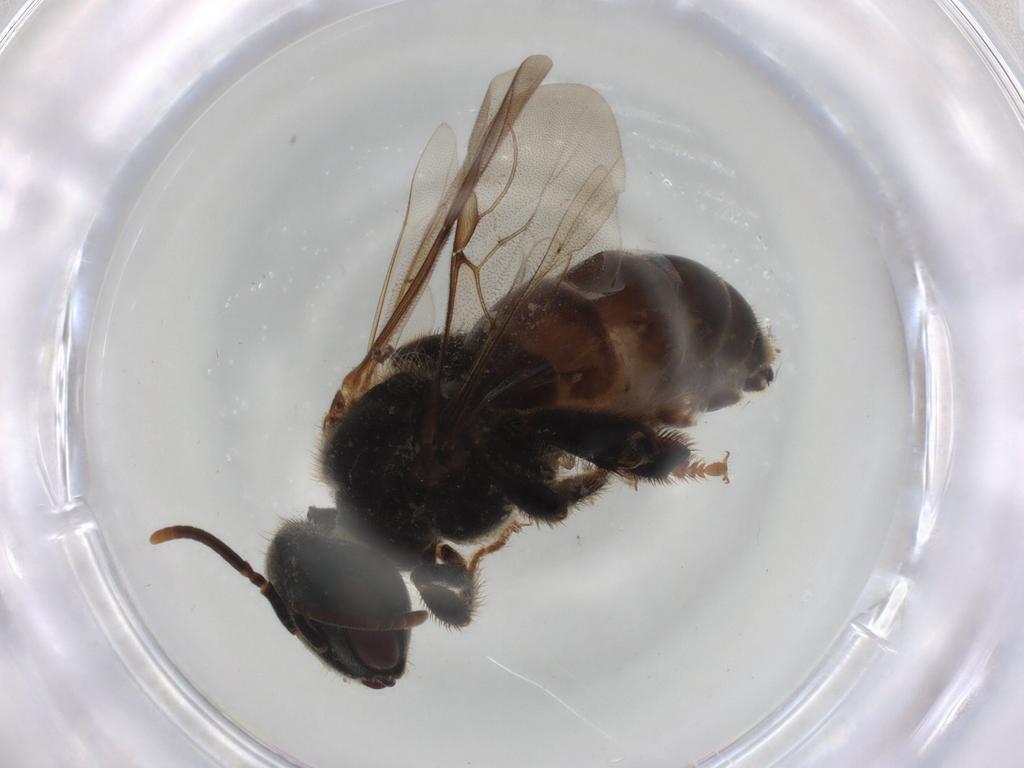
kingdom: Animalia
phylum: Arthropoda
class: Insecta
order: Hymenoptera
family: Apidae
